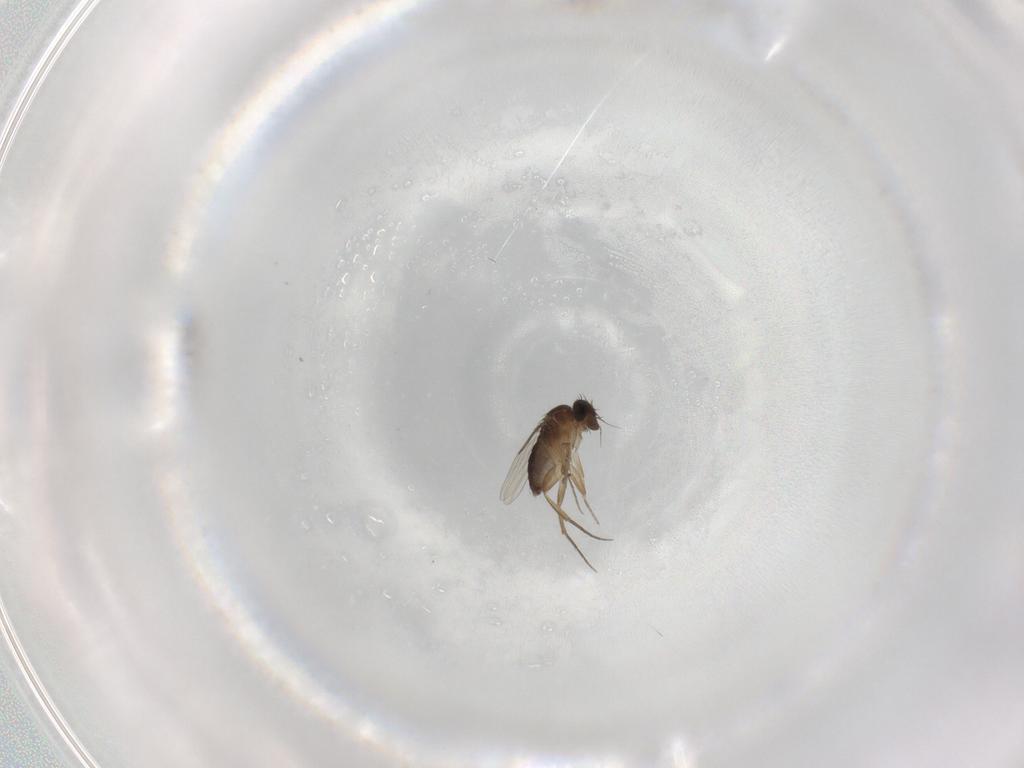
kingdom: Animalia
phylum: Arthropoda
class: Insecta
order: Diptera
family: Phoridae
